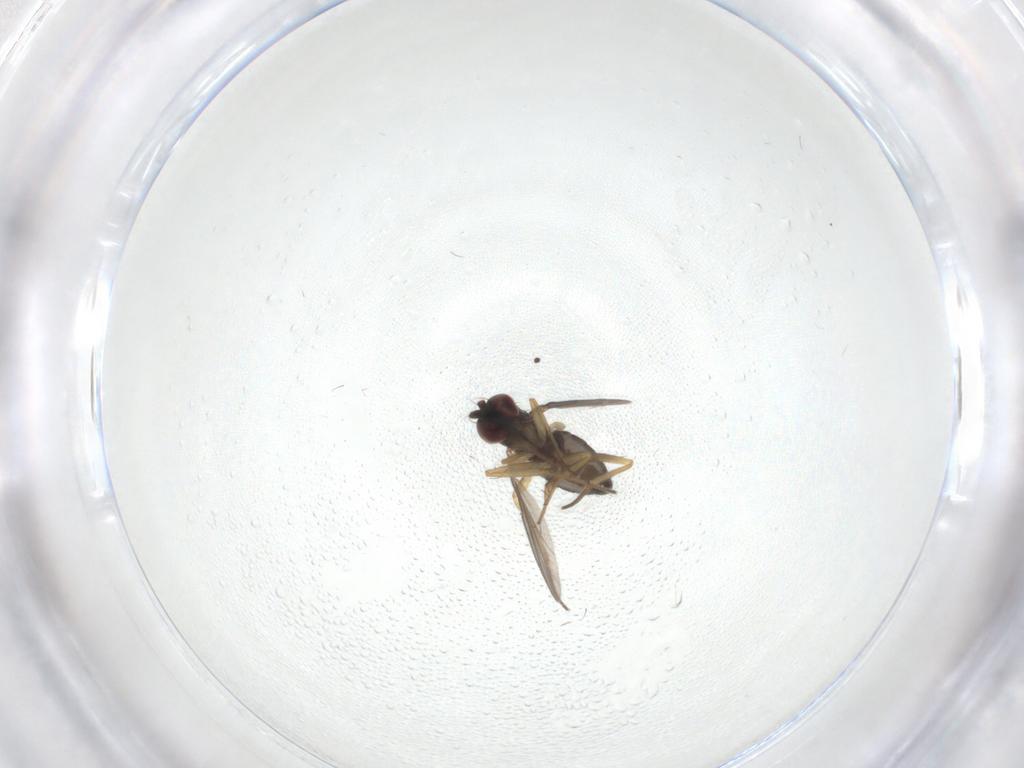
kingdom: Animalia
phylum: Arthropoda
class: Insecta
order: Diptera
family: Dolichopodidae
